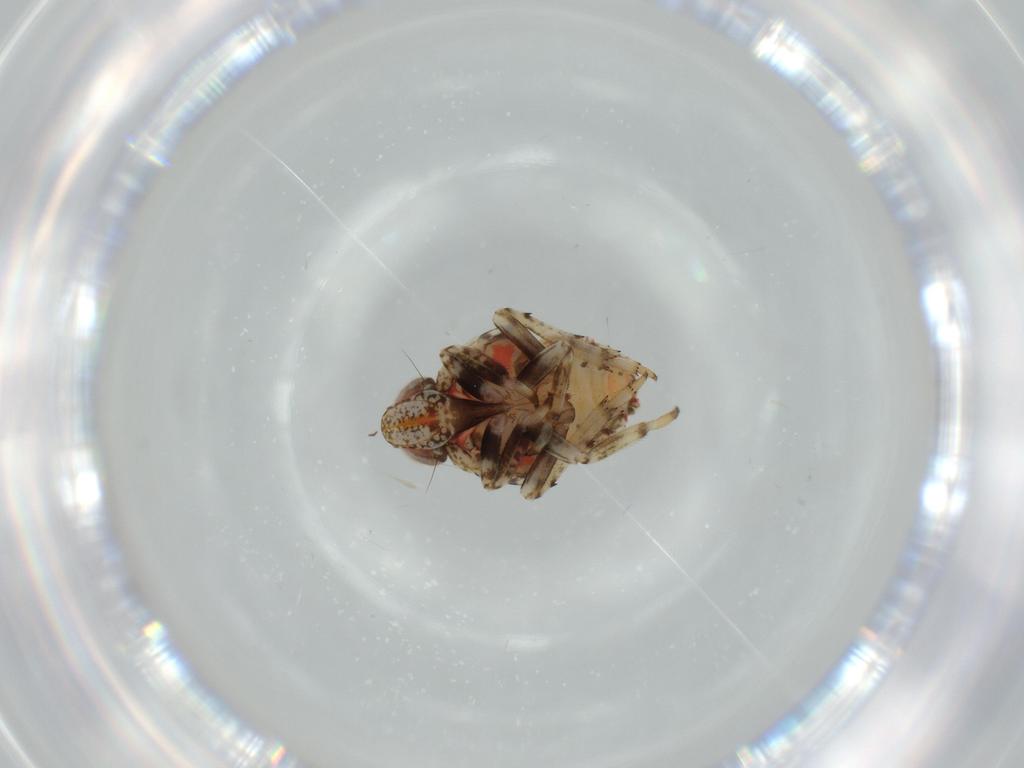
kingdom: Animalia
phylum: Arthropoda
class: Insecta
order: Hemiptera
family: Issidae
